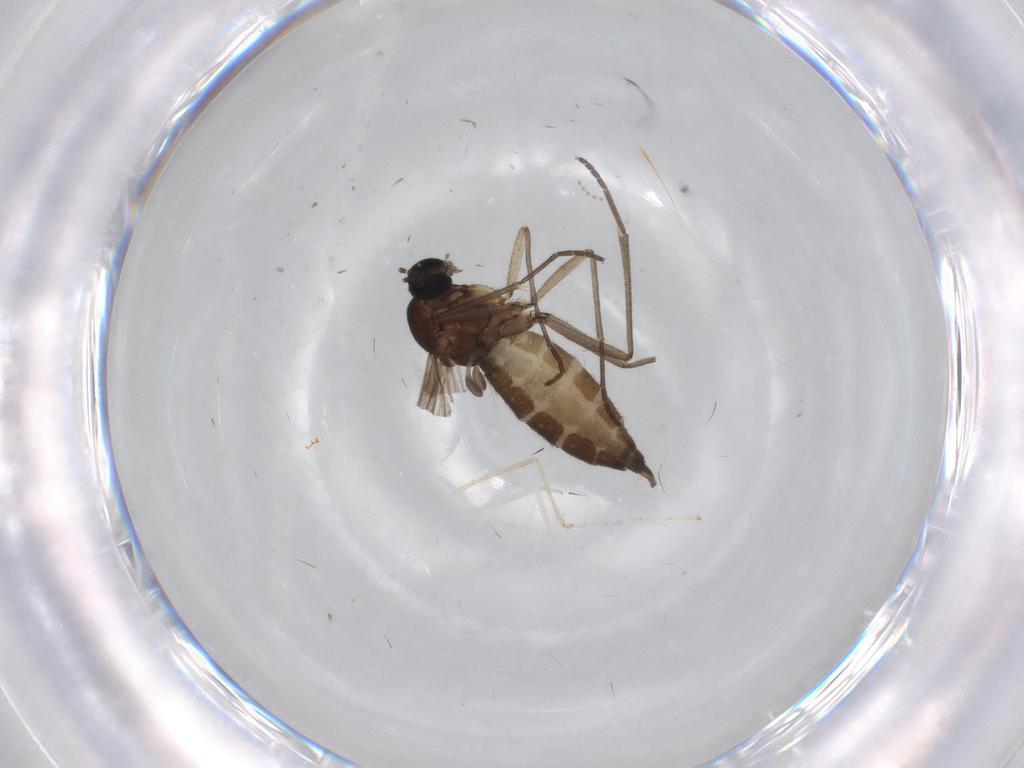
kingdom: Animalia
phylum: Arthropoda
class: Insecta
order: Diptera
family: Sciaridae
